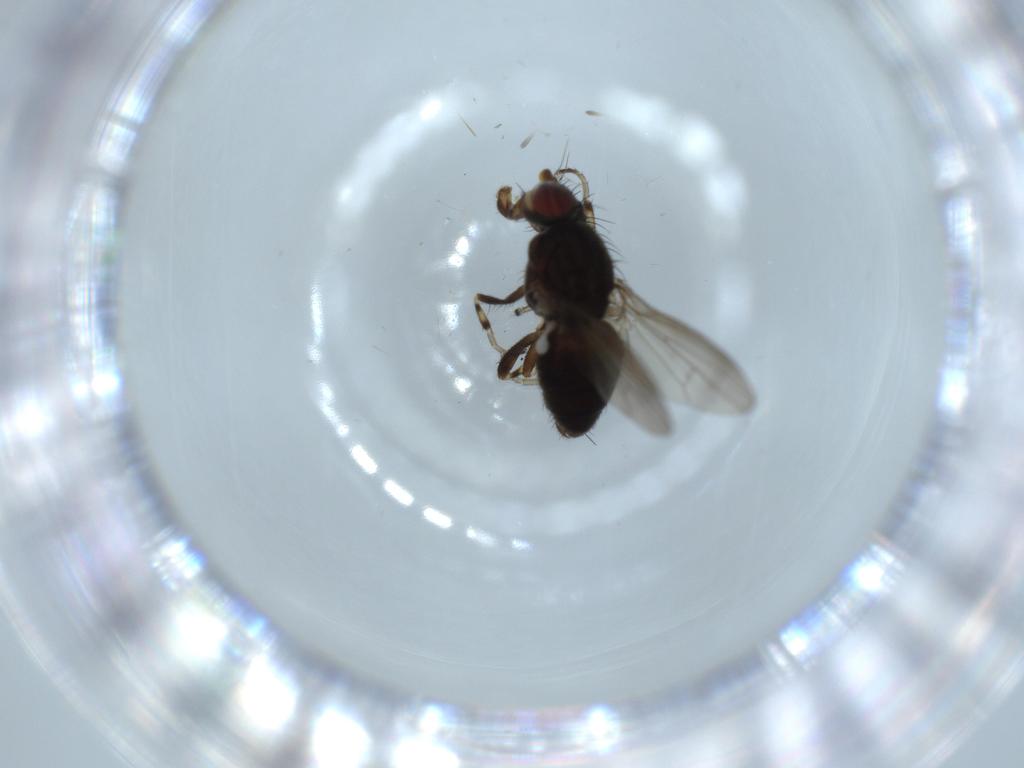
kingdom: Animalia
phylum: Arthropoda
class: Insecta
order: Diptera
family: Heleomyzidae
